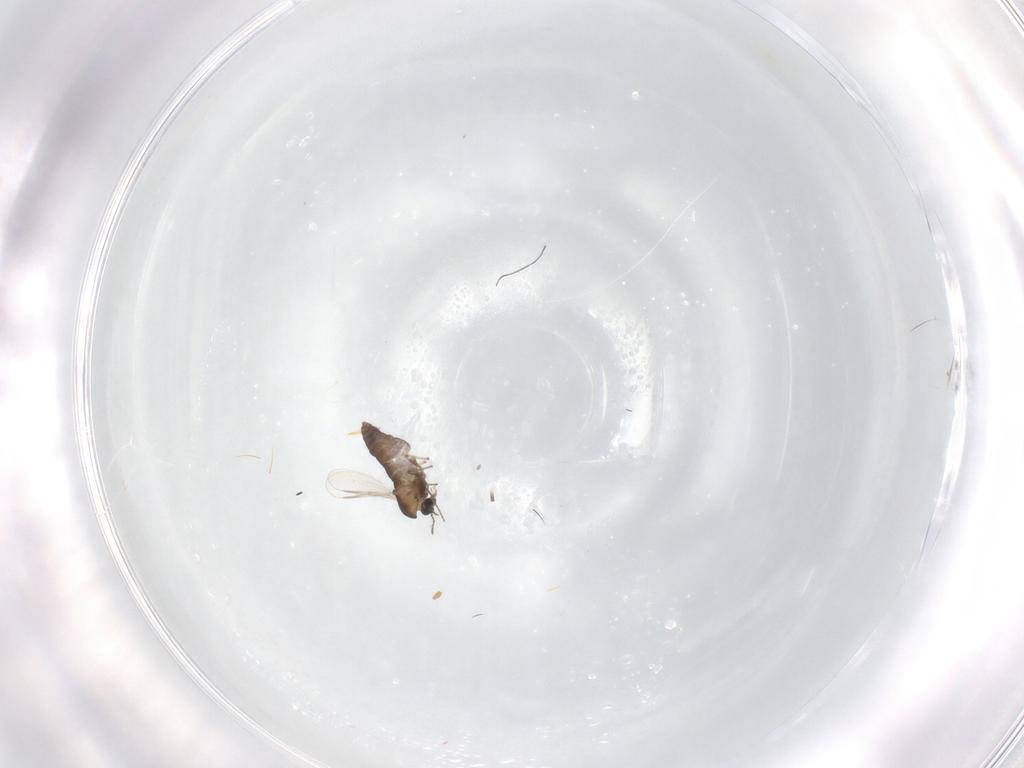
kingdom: Animalia
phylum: Arthropoda
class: Insecta
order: Diptera
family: Chironomidae
